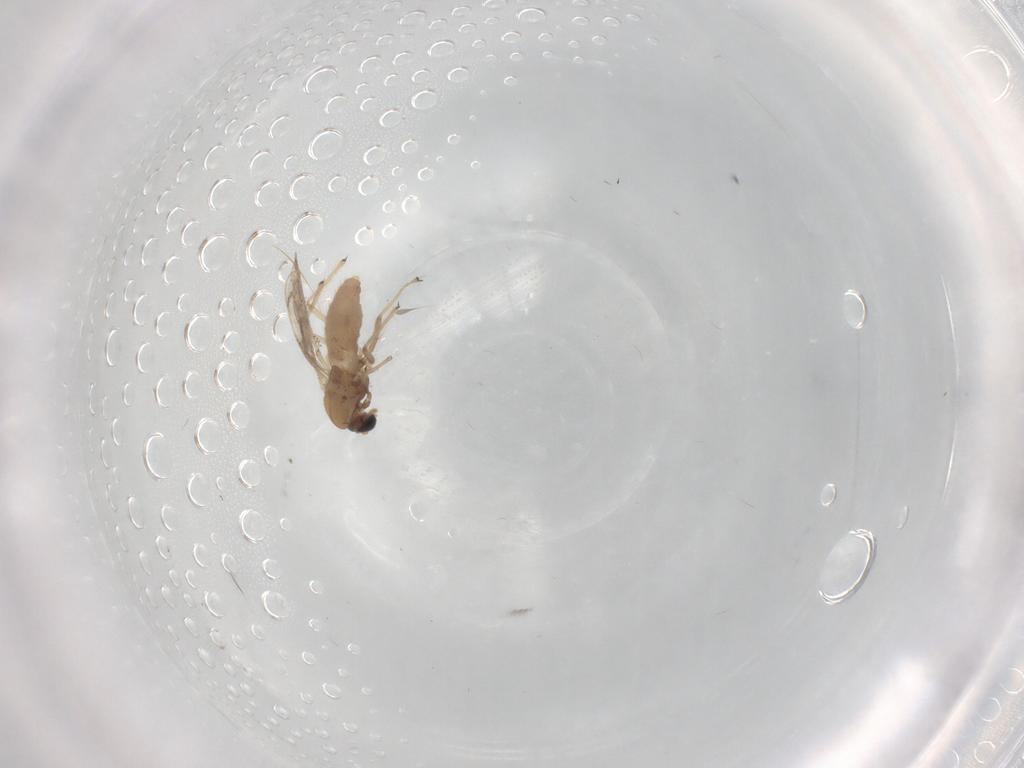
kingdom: Animalia
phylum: Arthropoda
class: Insecta
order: Diptera
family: Chironomidae
